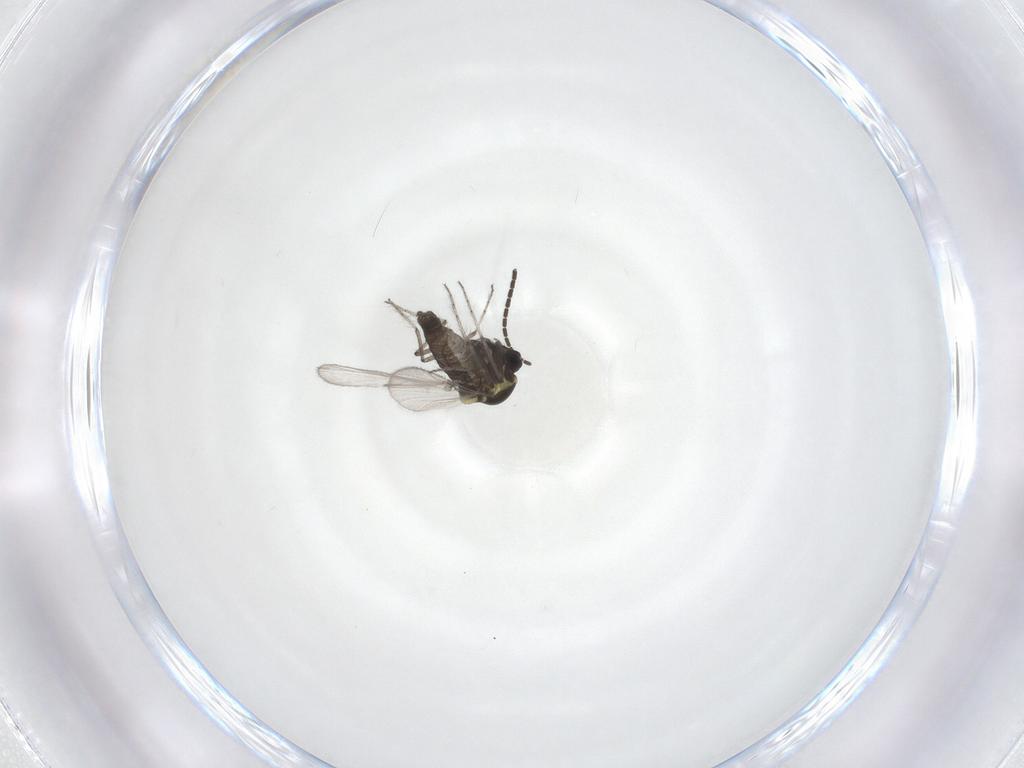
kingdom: Animalia
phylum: Arthropoda
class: Insecta
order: Diptera
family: Ceratopogonidae
